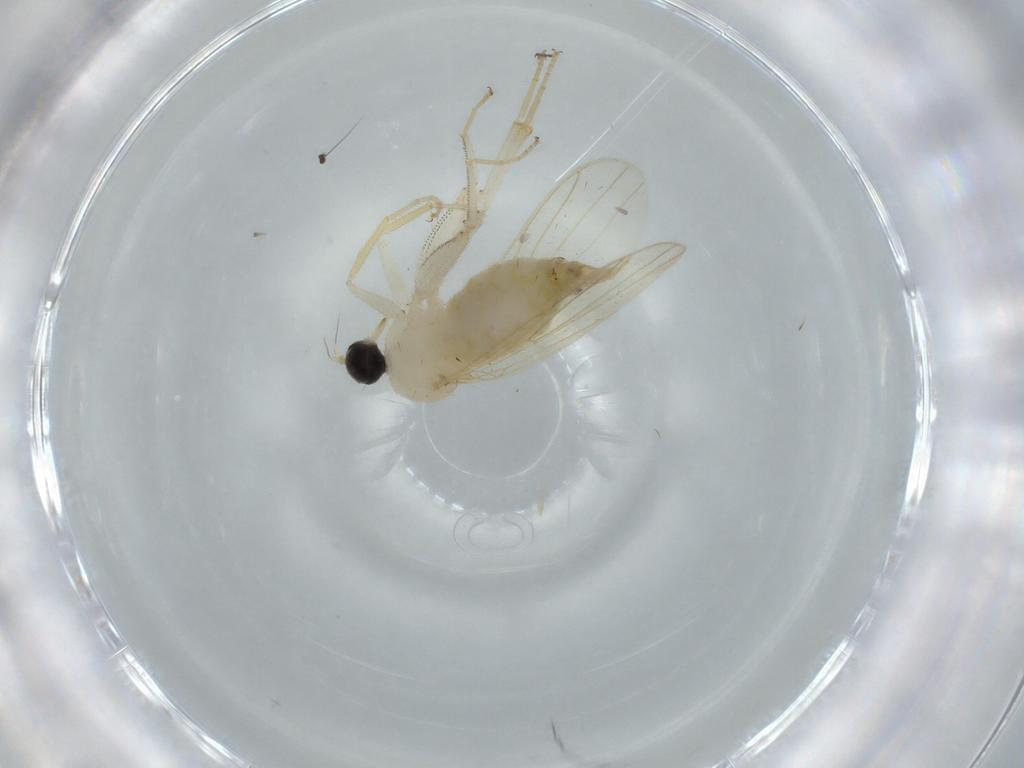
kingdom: Animalia
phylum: Arthropoda
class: Insecta
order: Diptera
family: Hybotidae
